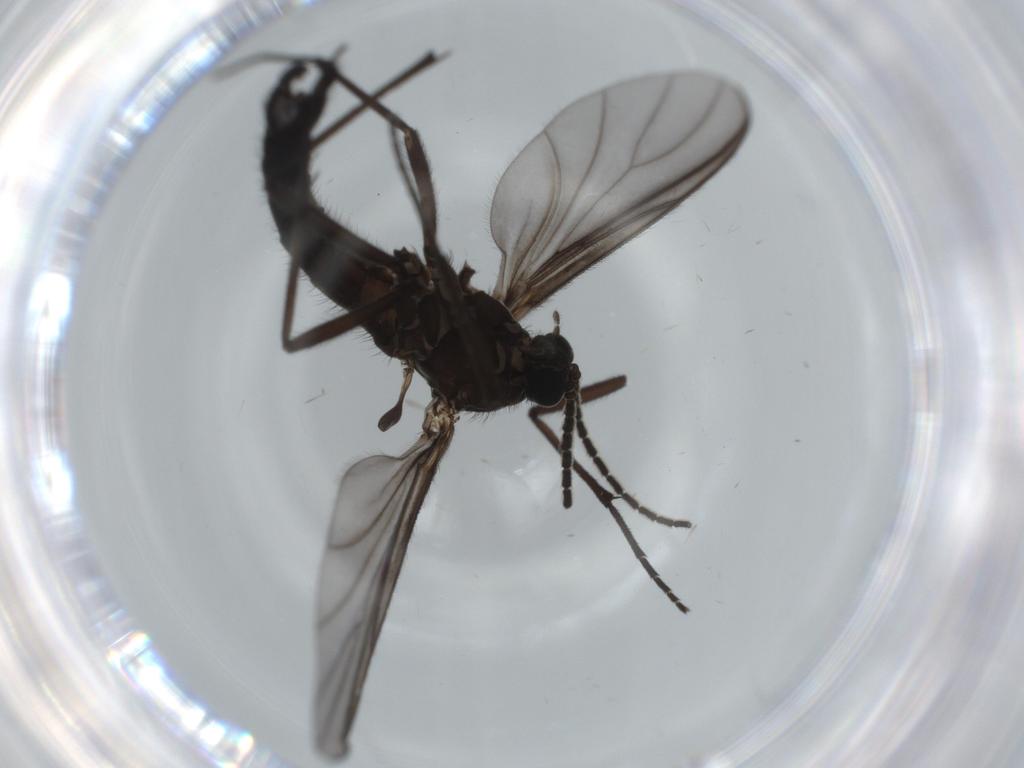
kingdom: Animalia
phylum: Arthropoda
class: Insecta
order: Diptera
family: Sciaridae
